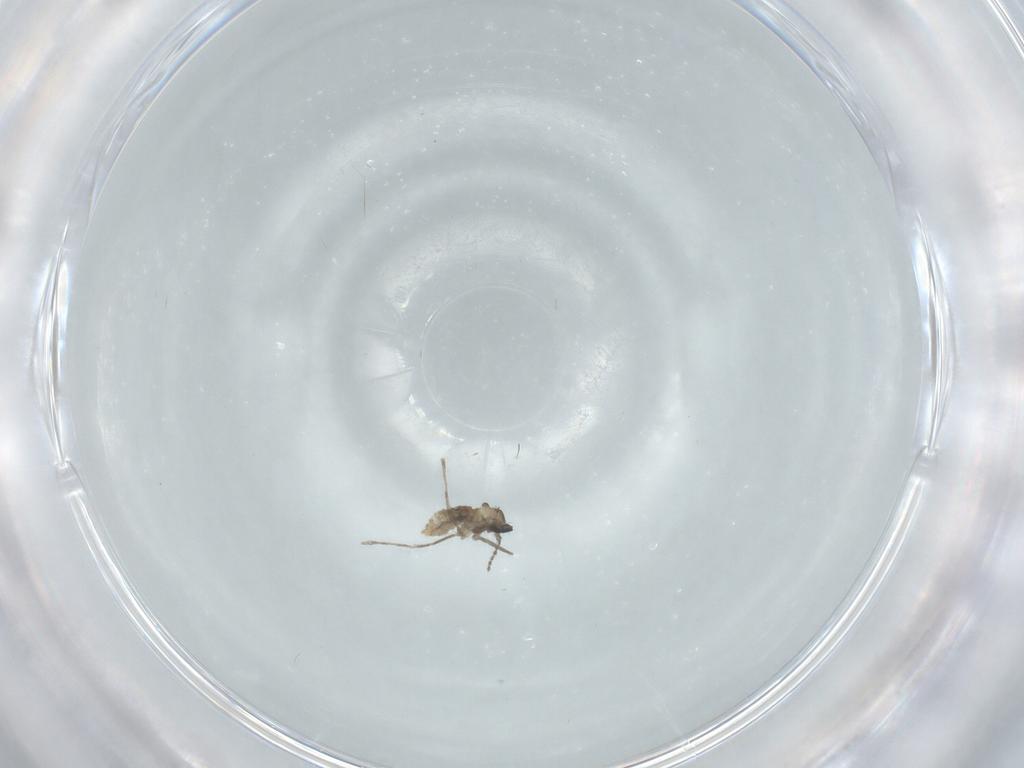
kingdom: Animalia
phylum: Arthropoda
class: Insecta
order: Diptera
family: Cecidomyiidae
